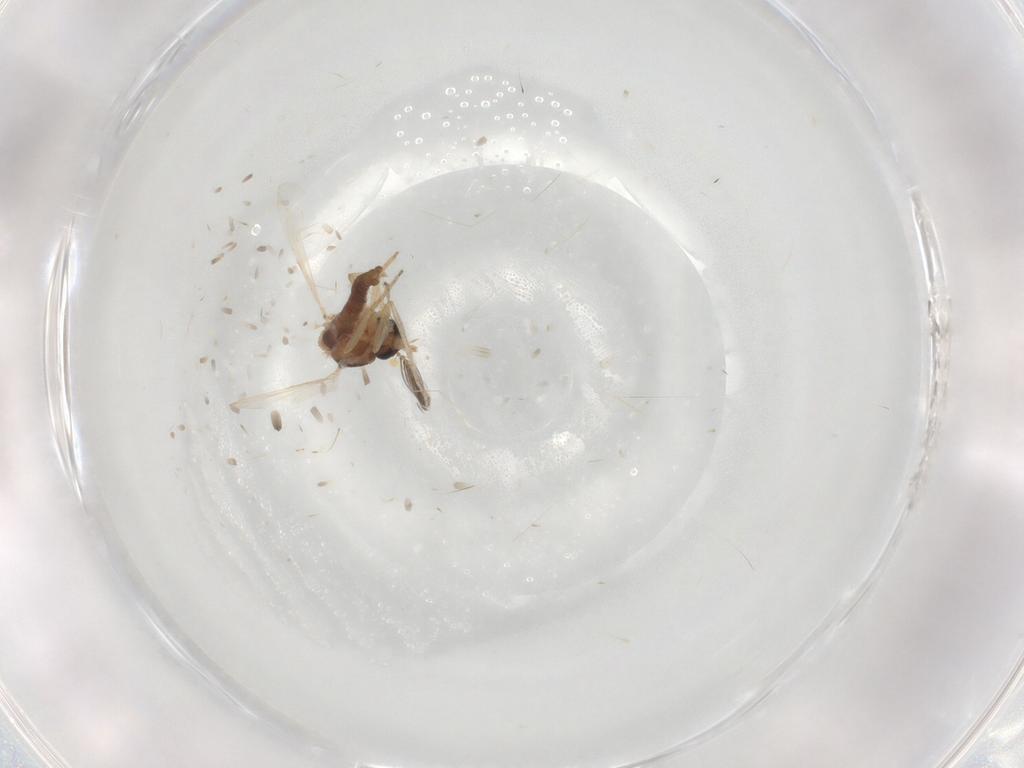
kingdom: Animalia
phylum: Arthropoda
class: Insecta
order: Diptera
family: Ceratopogonidae
